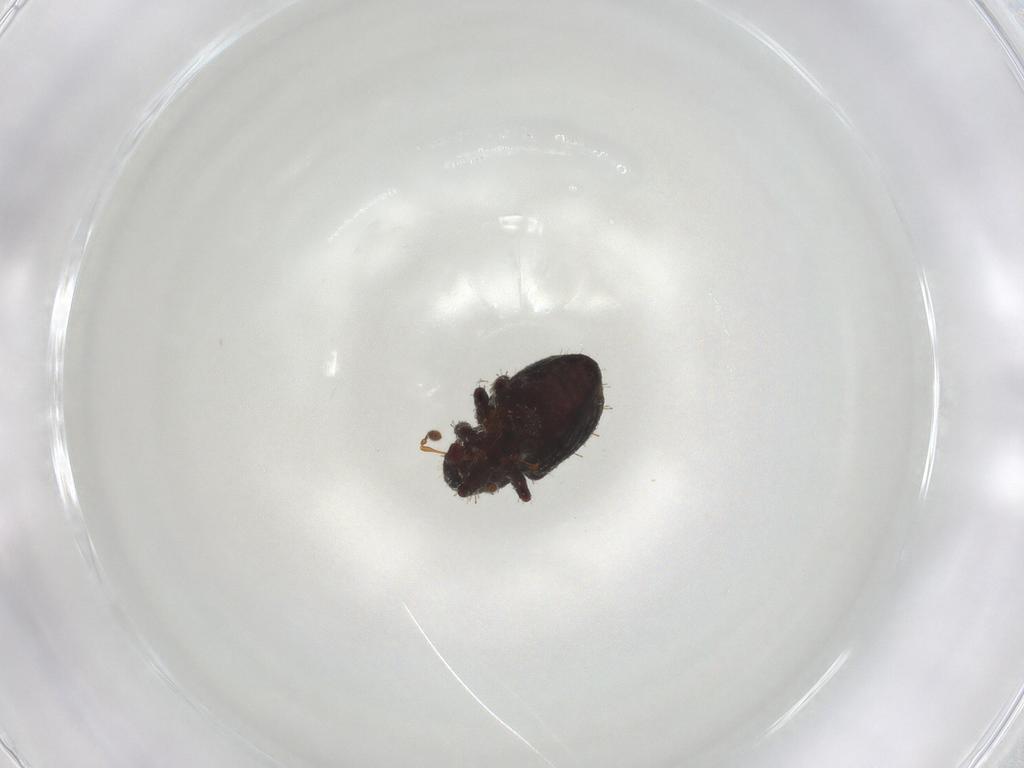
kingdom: Animalia
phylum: Arthropoda
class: Insecta
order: Coleoptera
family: Curculionidae
